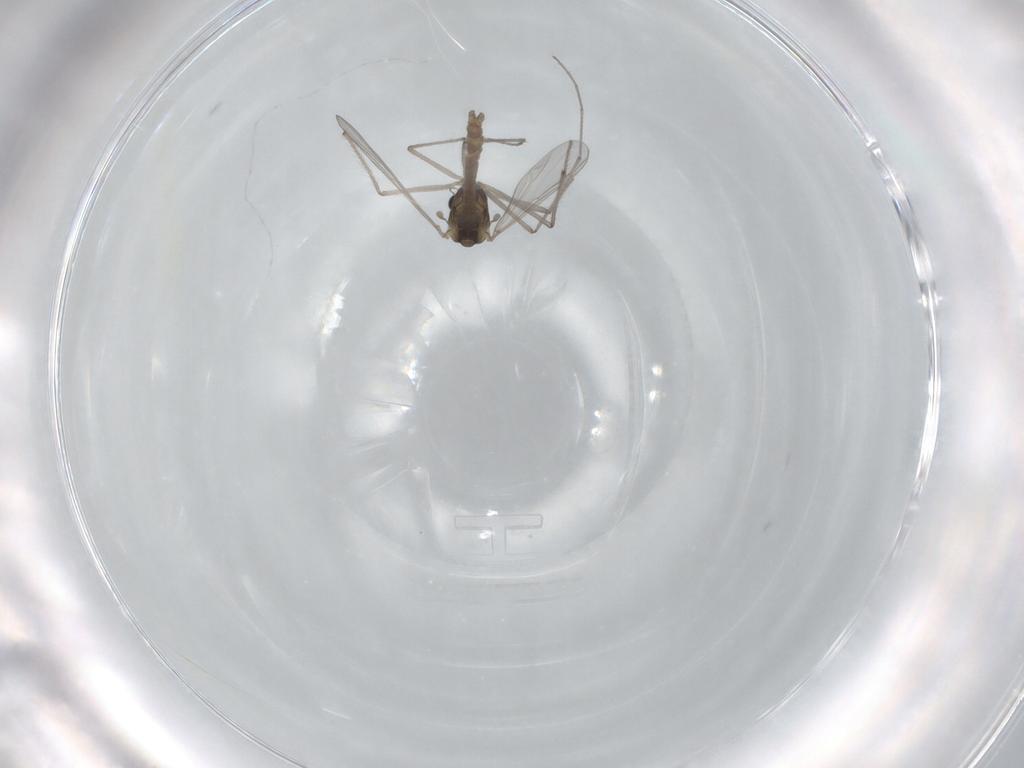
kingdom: Animalia
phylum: Arthropoda
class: Insecta
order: Diptera
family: Chironomidae
